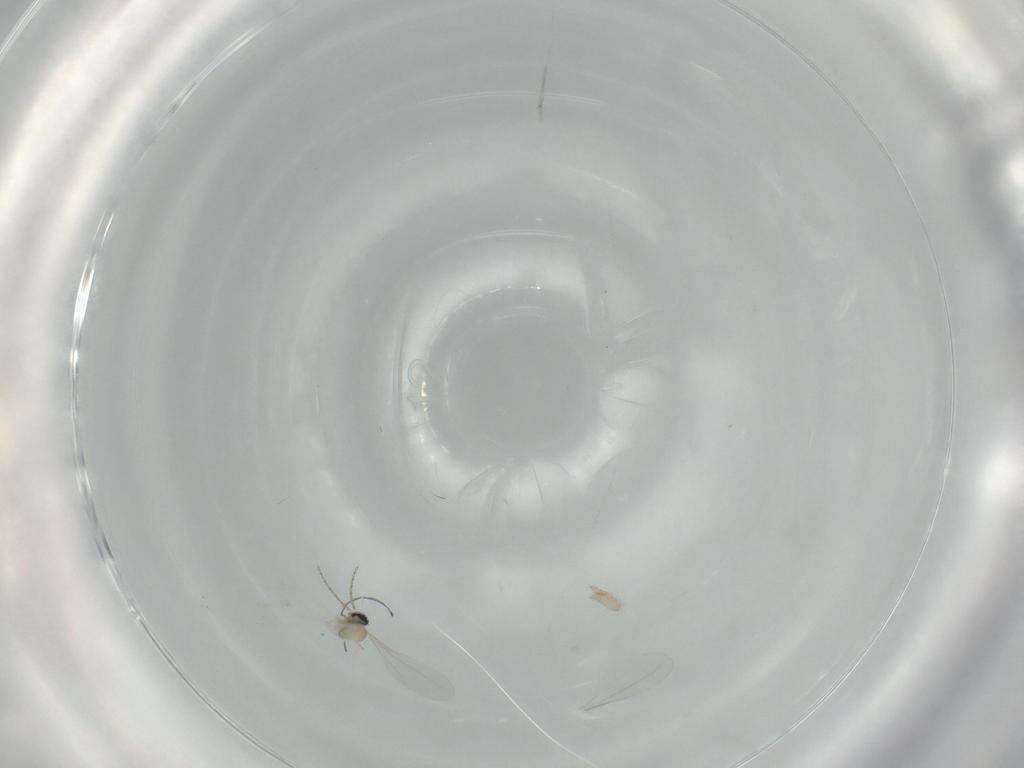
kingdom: Animalia
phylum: Arthropoda
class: Insecta
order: Diptera
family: Cecidomyiidae
